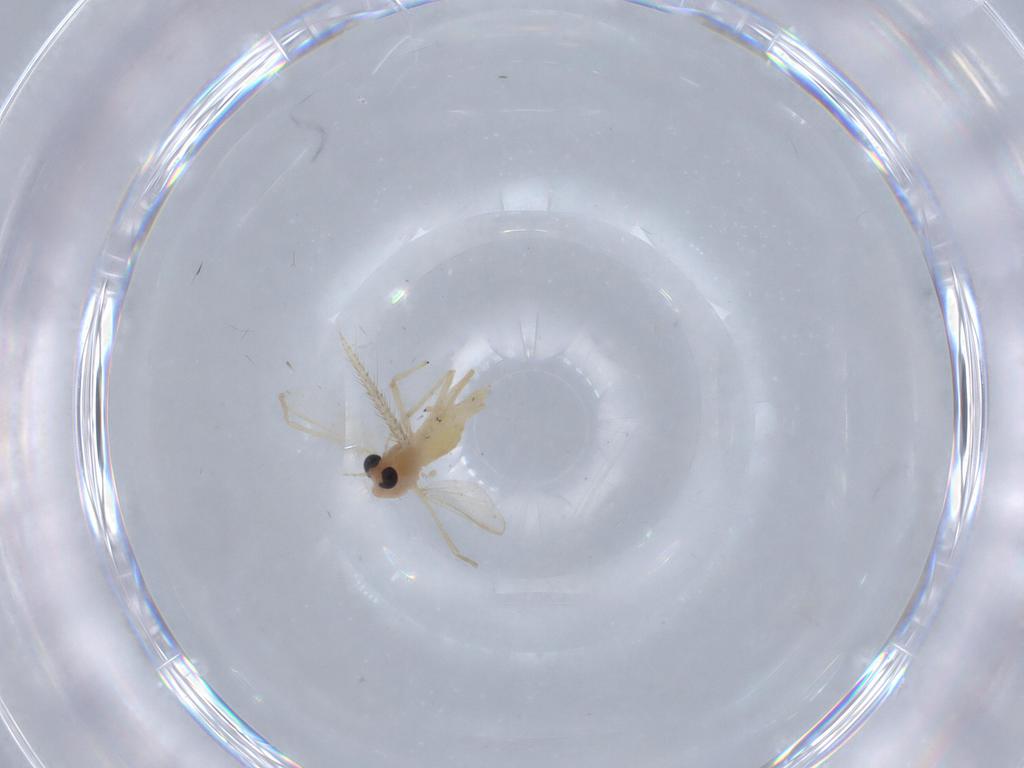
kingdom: Animalia
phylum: Arthropoda
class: Insecta
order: Diptera
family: Chironomidae
